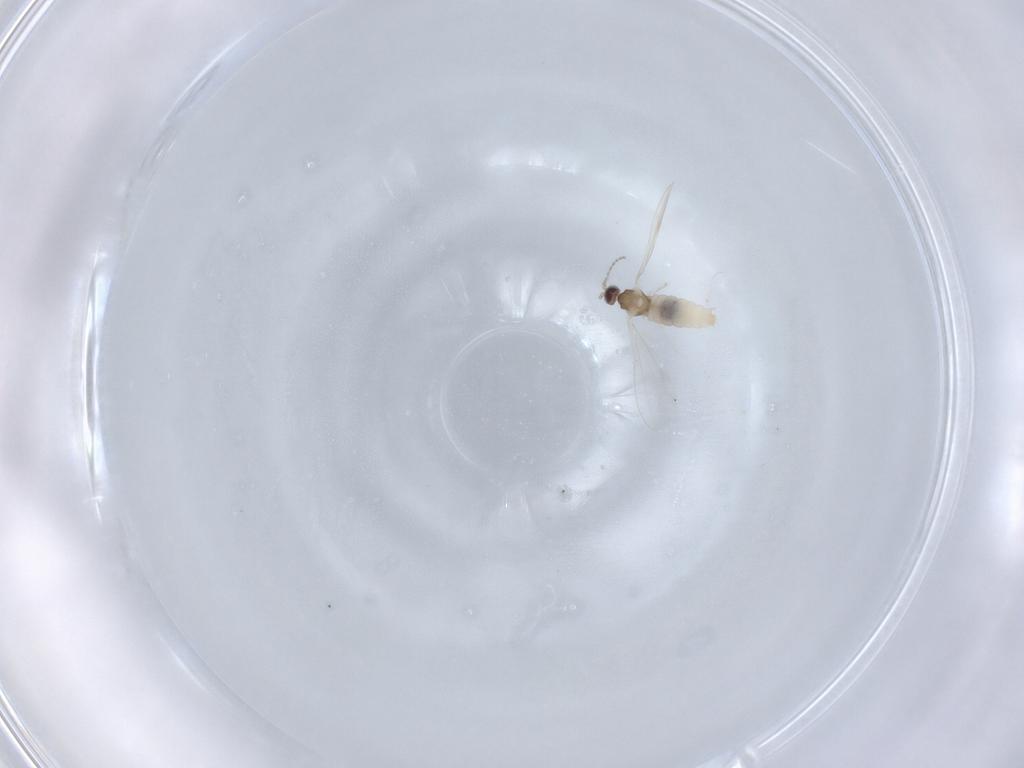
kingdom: Animalia
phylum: Arthropoda
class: Insecta
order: Diptera
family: Cecidomyiidae
